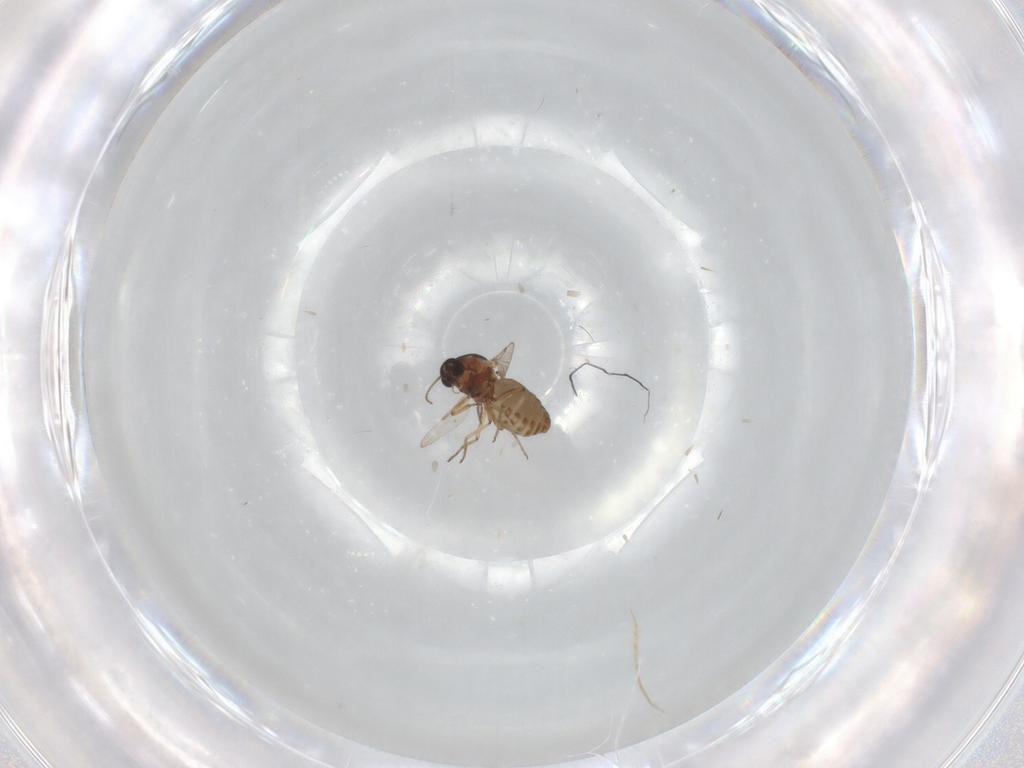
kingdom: Animalia
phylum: Arthropoda
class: Insecta
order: Diptera
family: Ceratopogonidae
